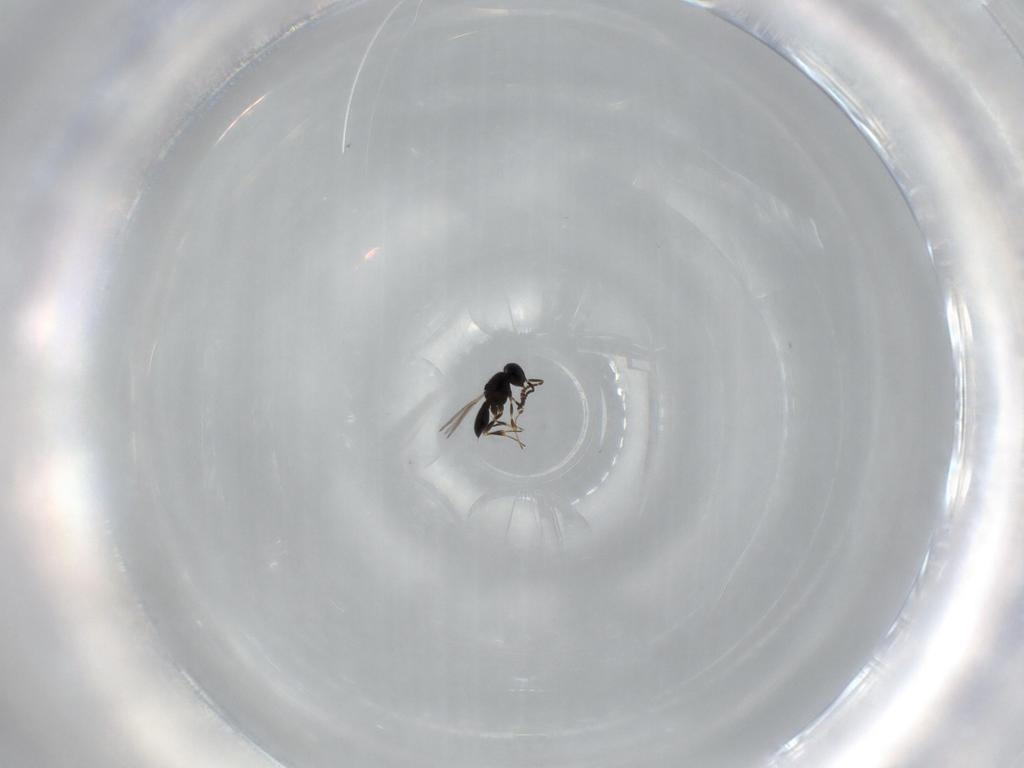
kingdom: Animalia
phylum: Arthropoda
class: Insecta
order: Hymenoptera
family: Scelionidae
